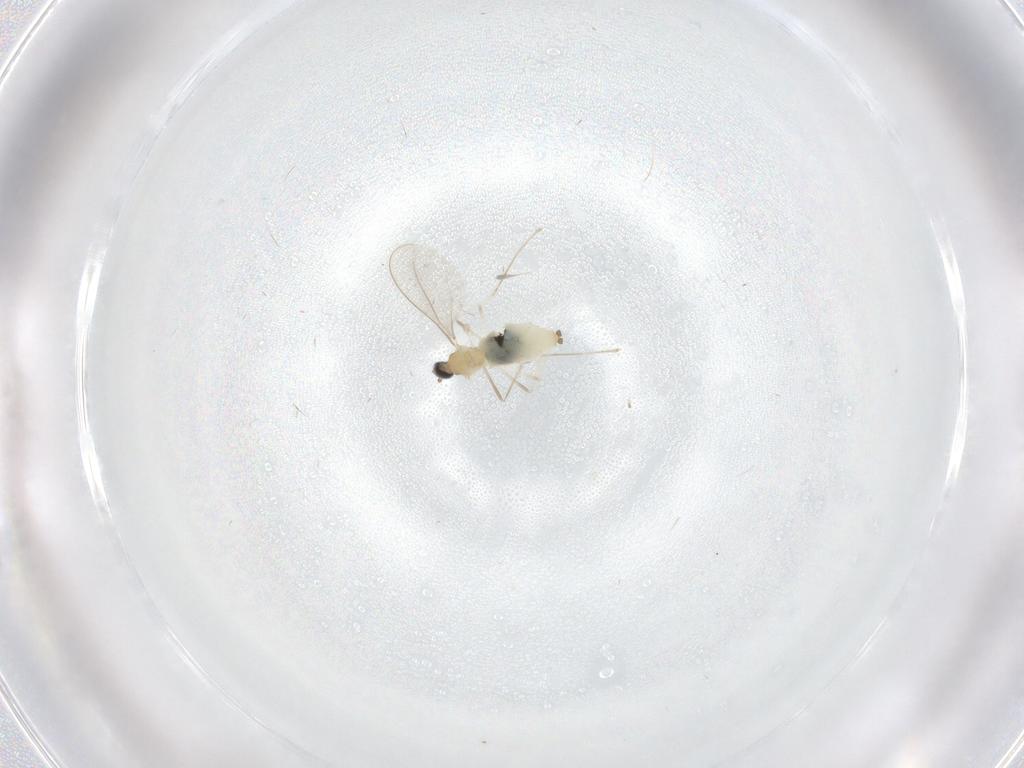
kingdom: Animalia
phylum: Arthropoda
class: Insecta
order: Diptera
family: Cecidomyiidae
